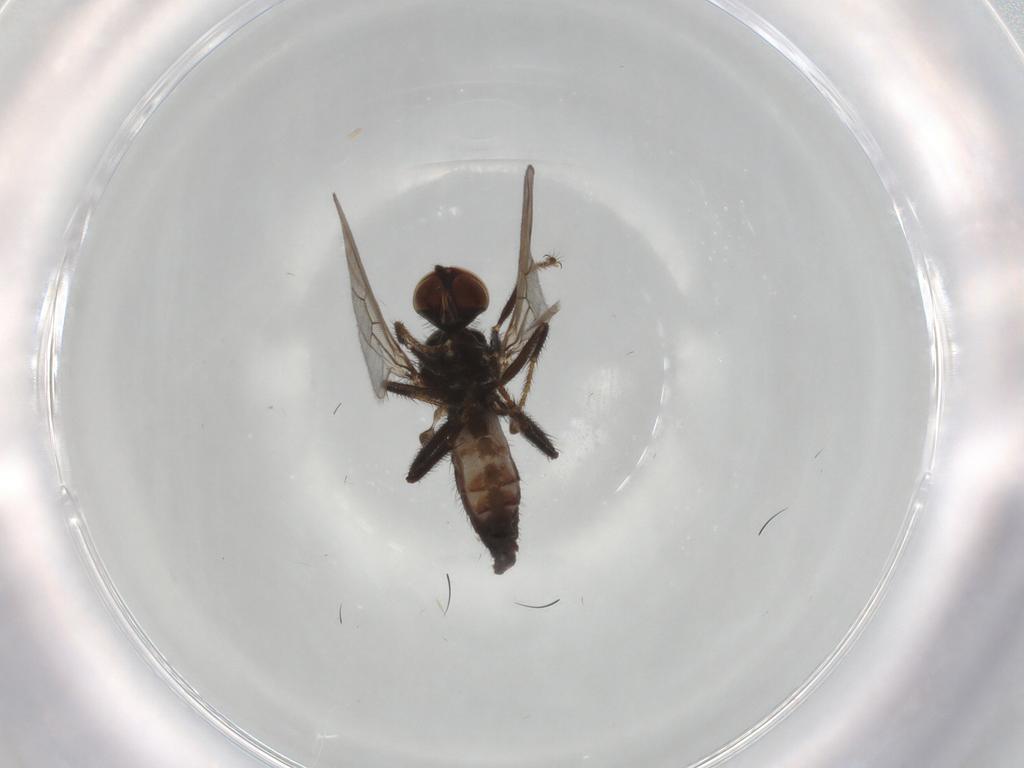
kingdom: Animalia
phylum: Arthropoda
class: Insecta
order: Diptera
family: Hybotidae
